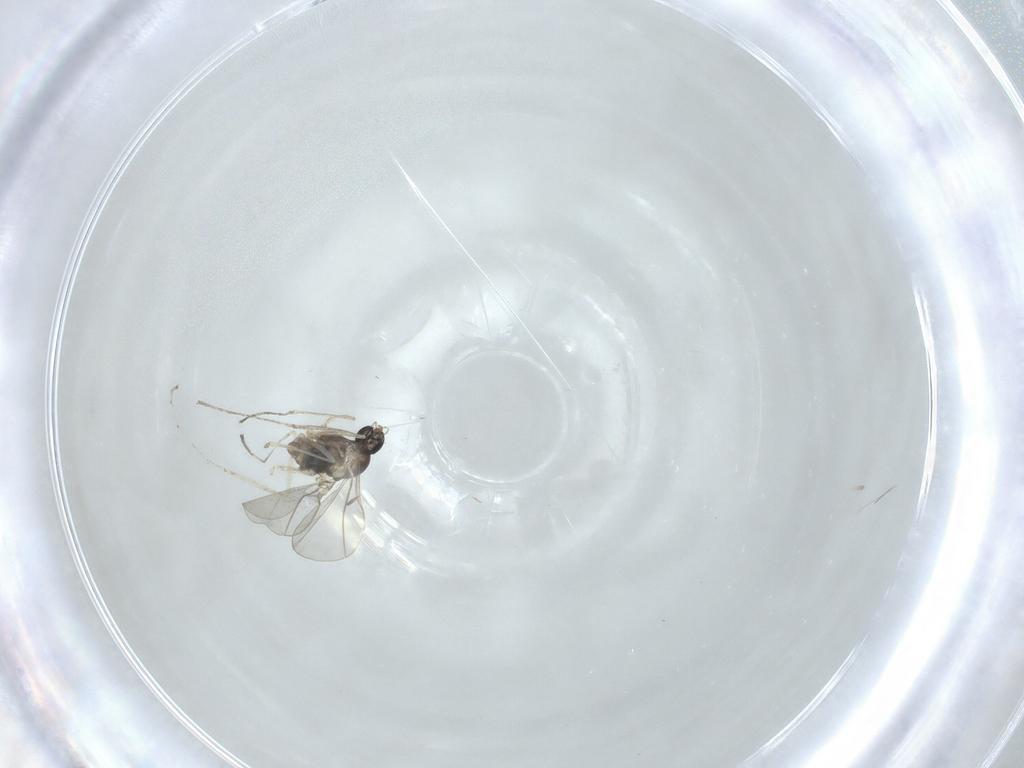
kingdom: Animalia
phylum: Arthropoda
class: Insecta
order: Diptera
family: Cecidomyiidae
